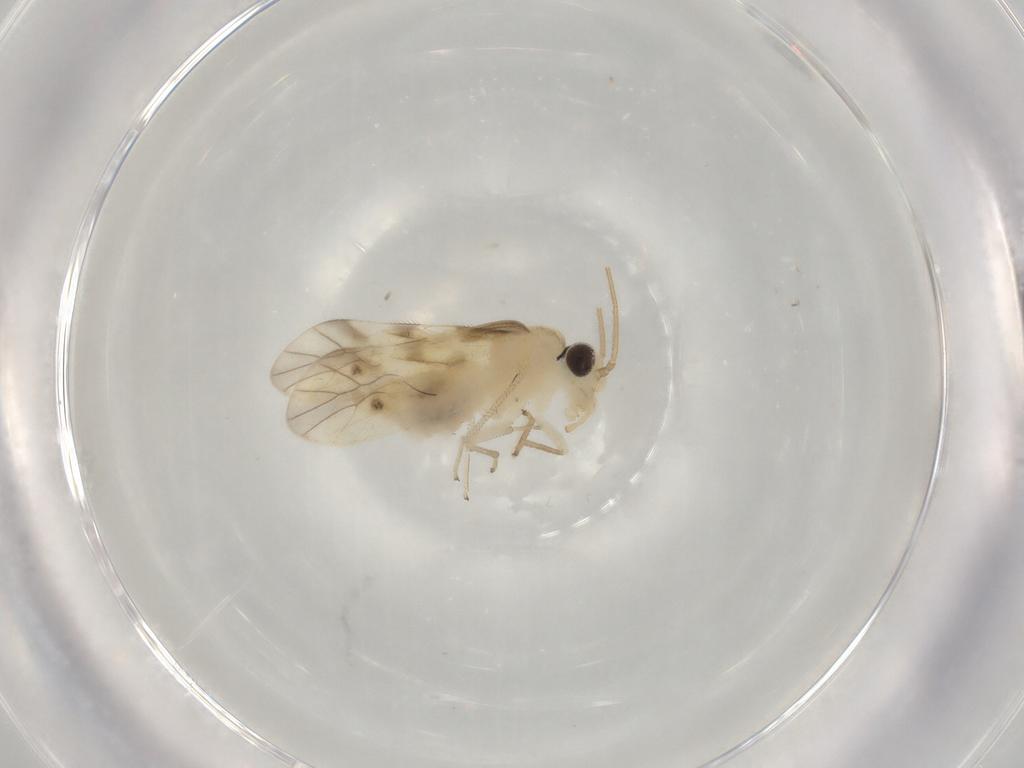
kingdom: Animalia
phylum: Arthropoda
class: Insecta
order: Psocodea
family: Caeciliusidae
